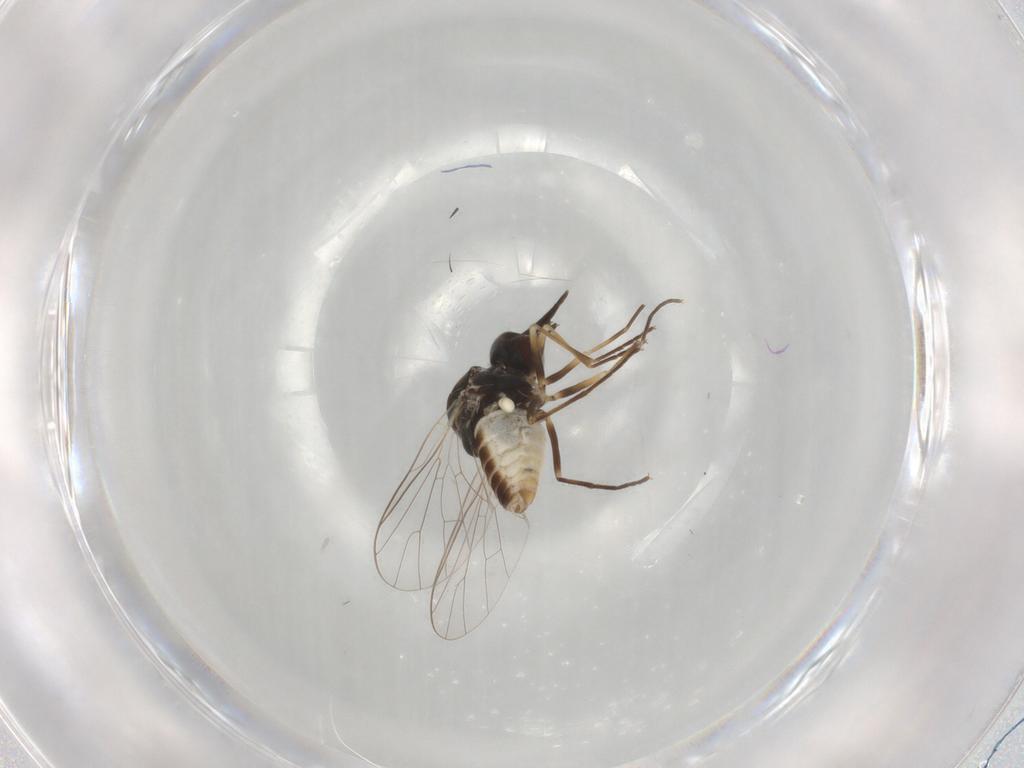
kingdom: Animalia
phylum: Arthropoda
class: Insecta
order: Diptera
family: Bombyliidae
